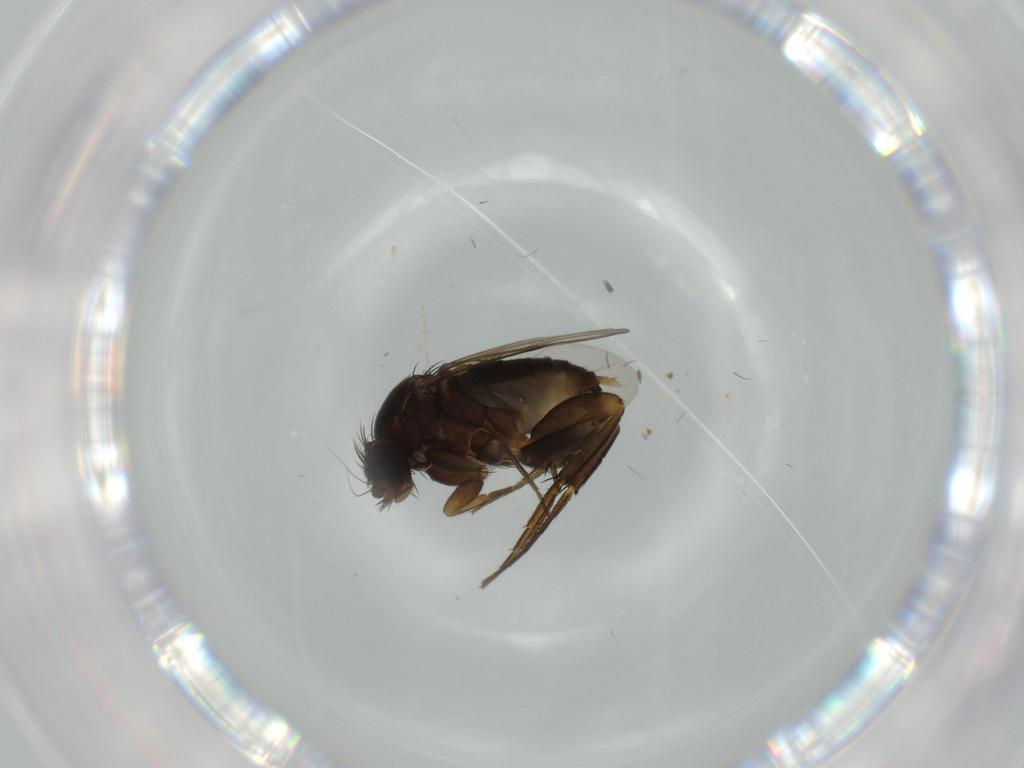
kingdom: Animalia
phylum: Arthropoda
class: Insecta
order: Diptera
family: Phoridae
